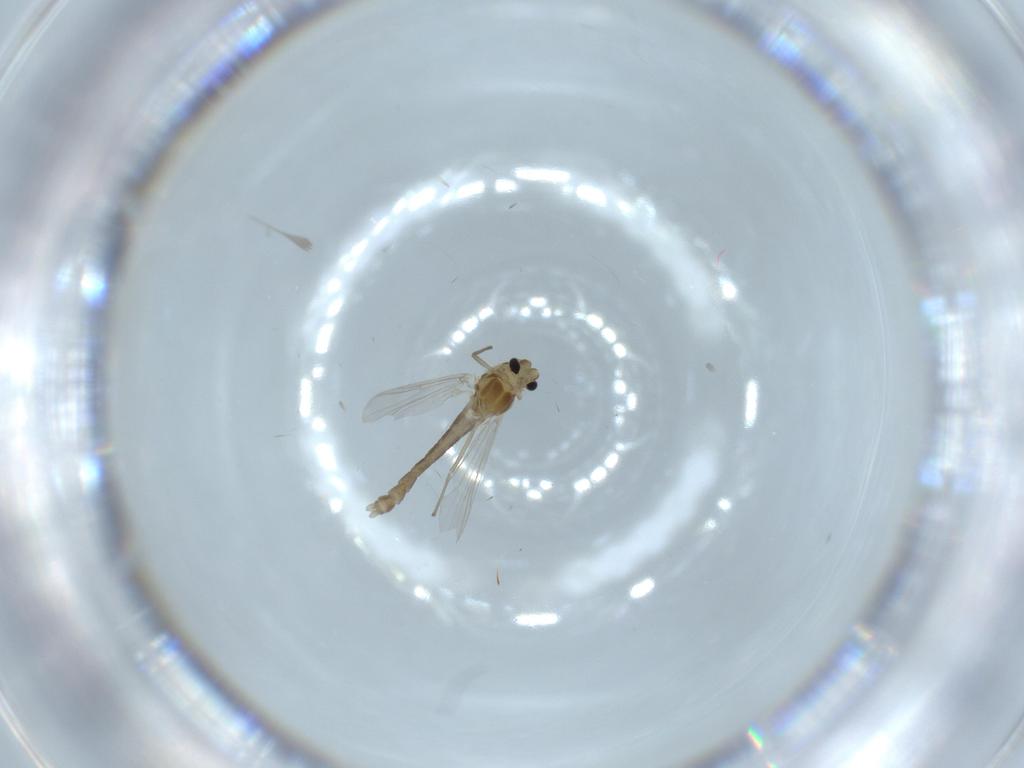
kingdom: Animalia
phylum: Arthropoda
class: Insecta
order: Diptera
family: Chironomidae
